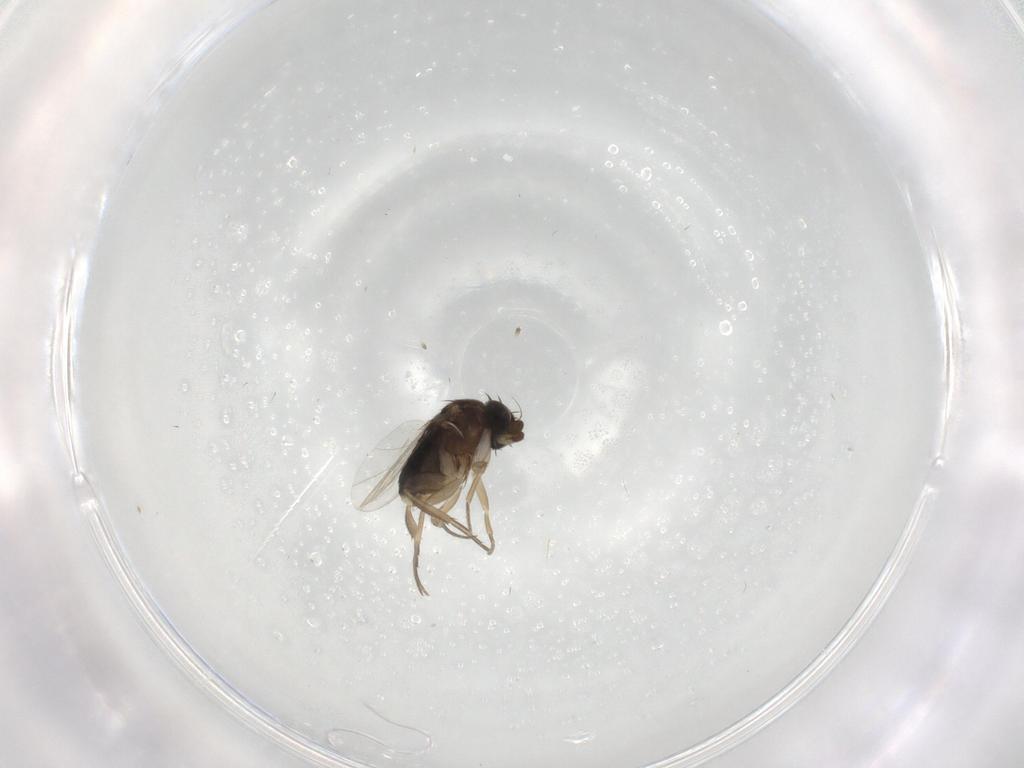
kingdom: Animalia
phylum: Arthropoda
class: Insecta
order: Diptera
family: Phoridae
